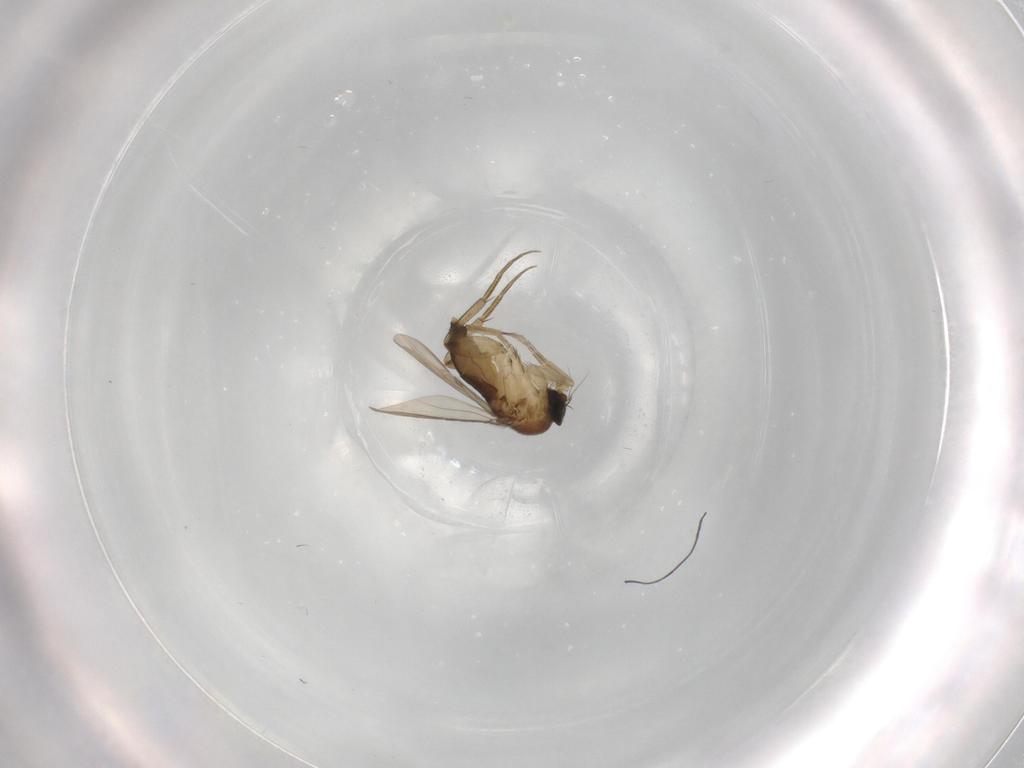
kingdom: Animalia
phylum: Arthropoda
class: Insecta
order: Diptera
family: Phoridae
